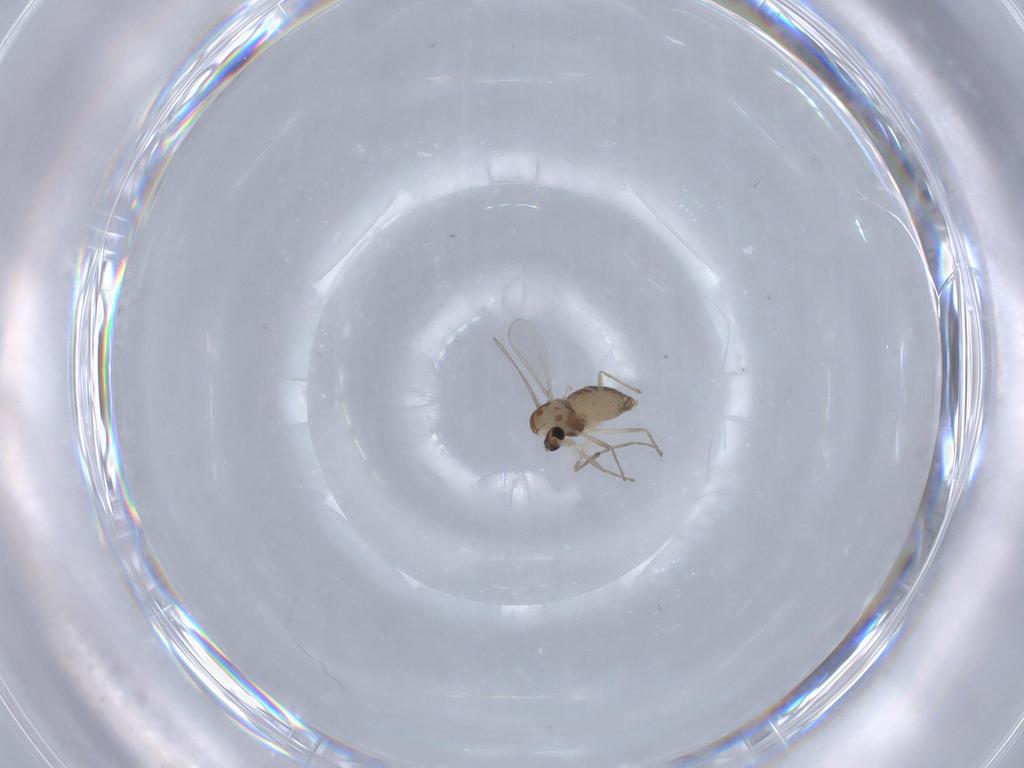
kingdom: Animalia
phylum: Arthropoda
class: Insecta
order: Diptera
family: Chironomidae
